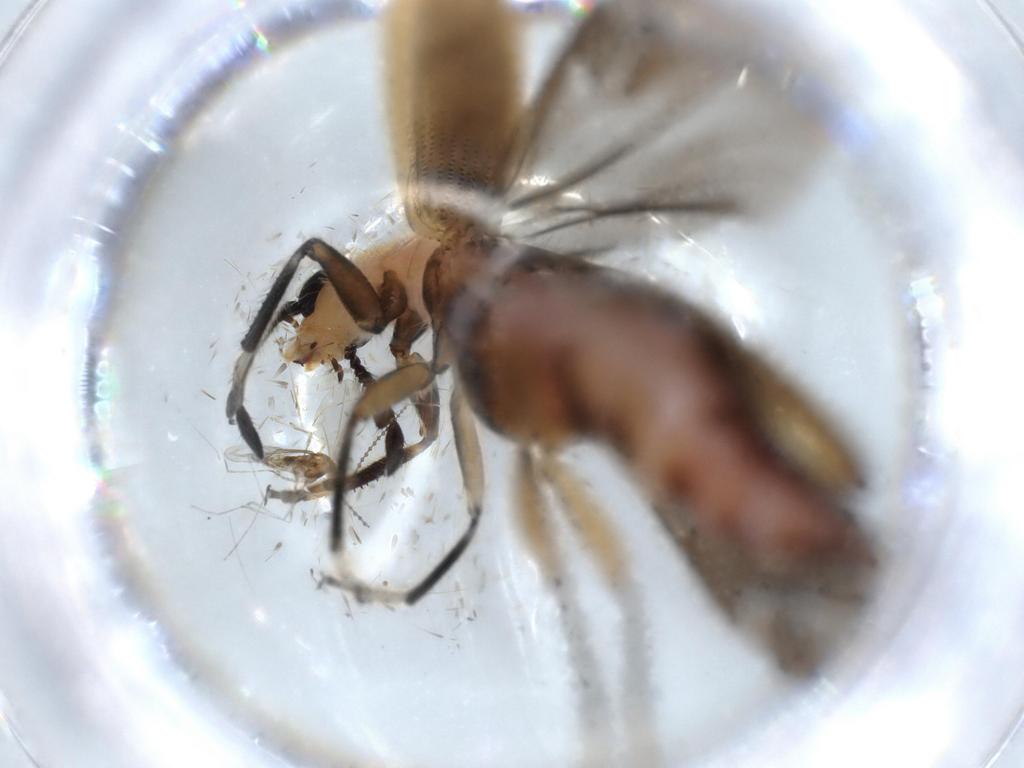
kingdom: Animalia
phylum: Arthropoda
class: Insecta
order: Coleoptera
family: Cleridae
